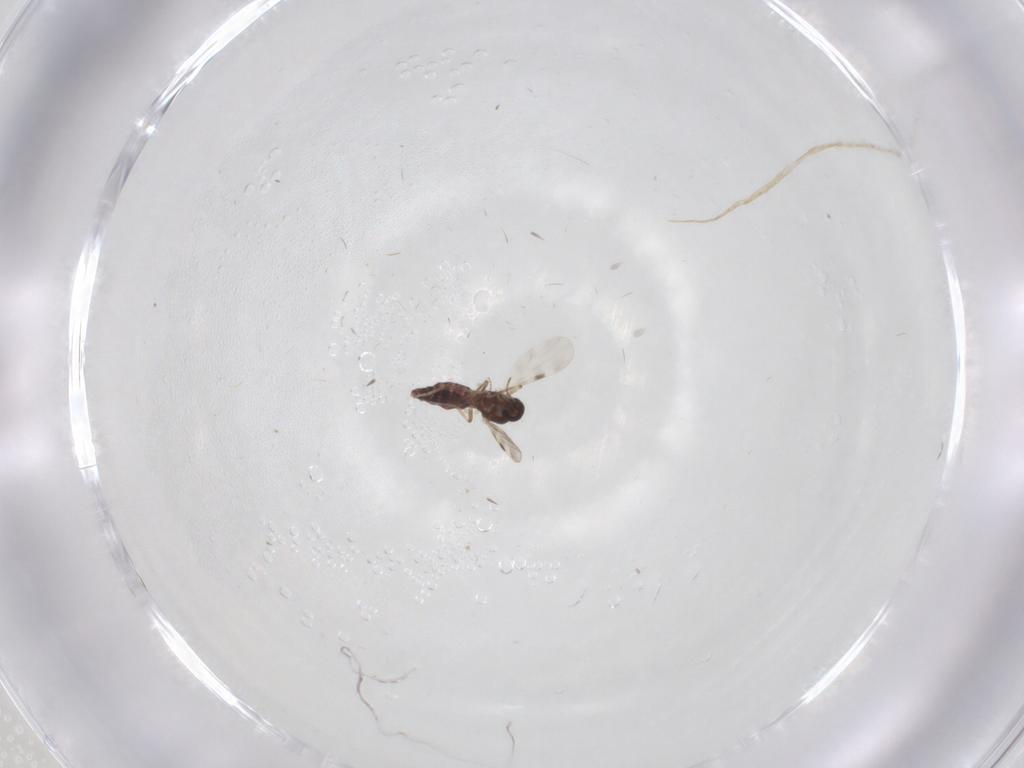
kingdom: Animalia
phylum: Arthropoda
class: Insecta
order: Diptera
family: Phoridae
